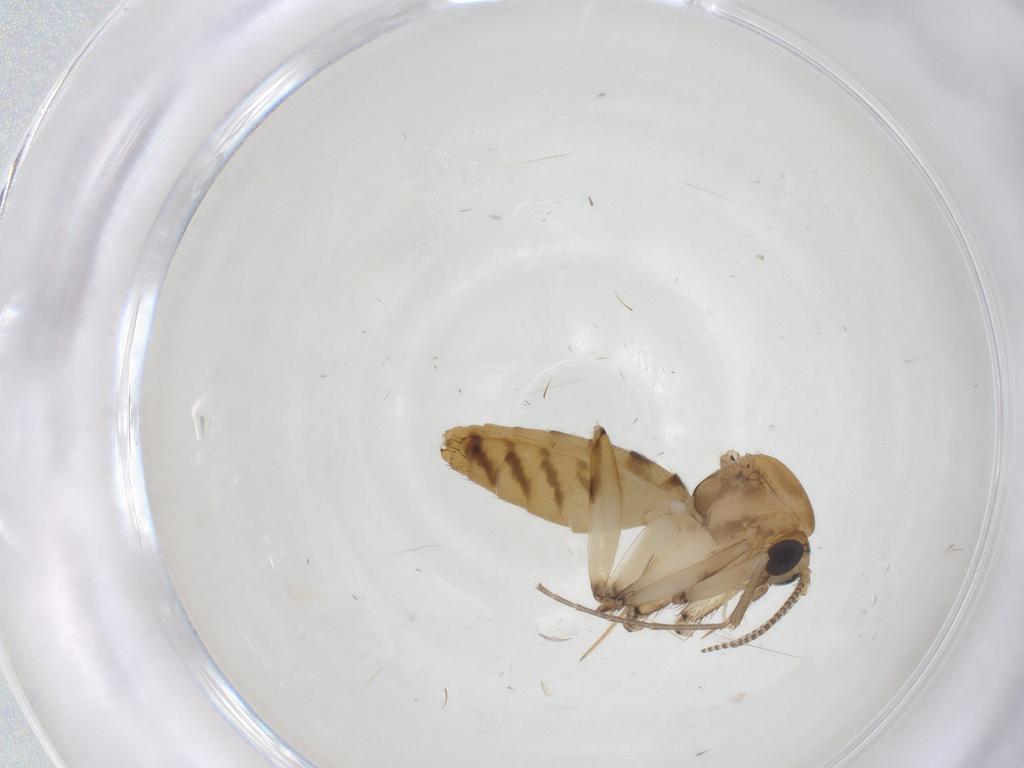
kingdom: Animalia
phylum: Arthropoda
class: Insecta
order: Diptera
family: Mycetophilidae
